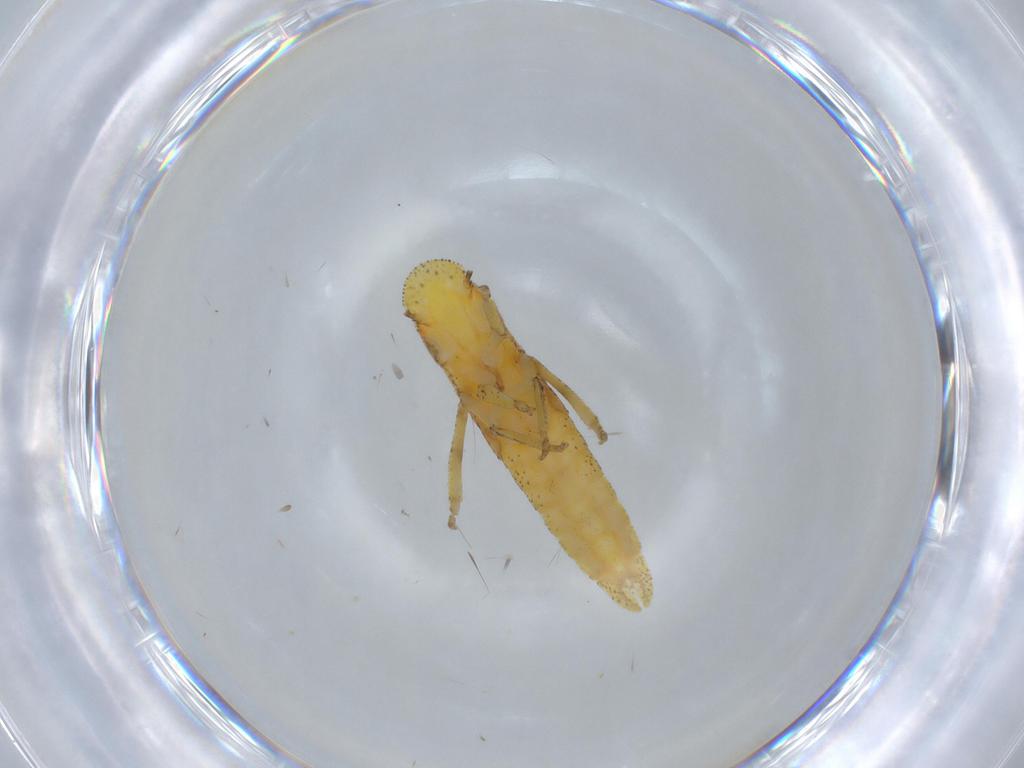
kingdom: Animalia
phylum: Arthropoda
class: Insecta
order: Hemiptera
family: Cicadellidae
